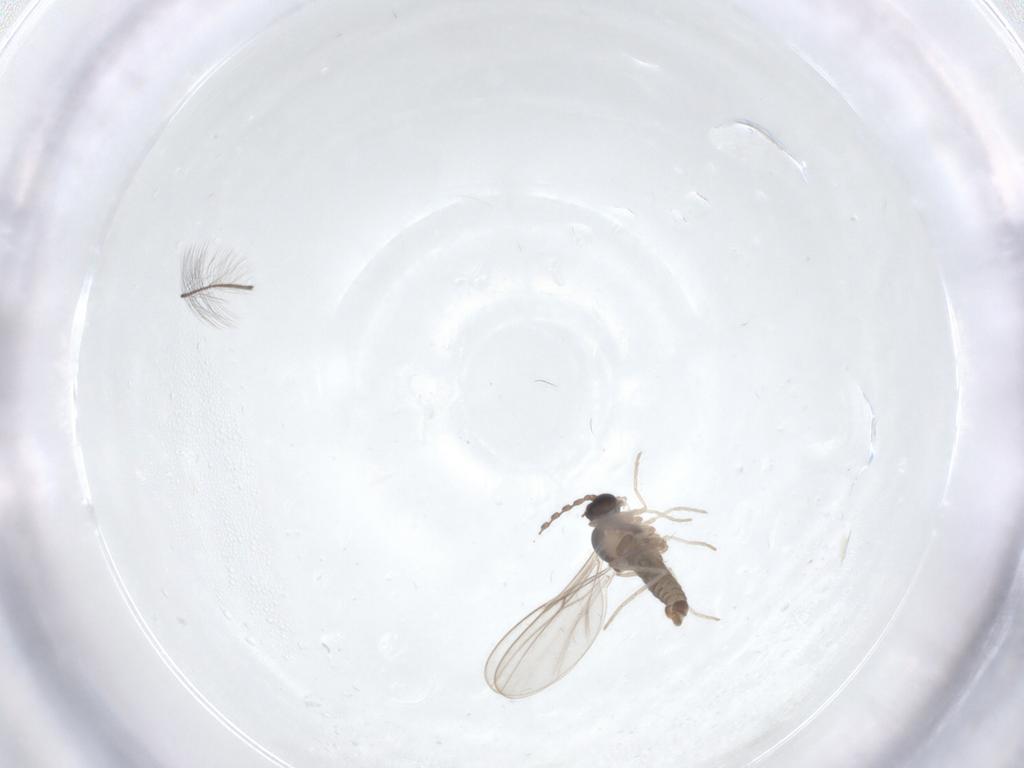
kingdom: Animalia
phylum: Arthropoda
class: Insecta
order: Diptera
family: Cecidomyiidae
